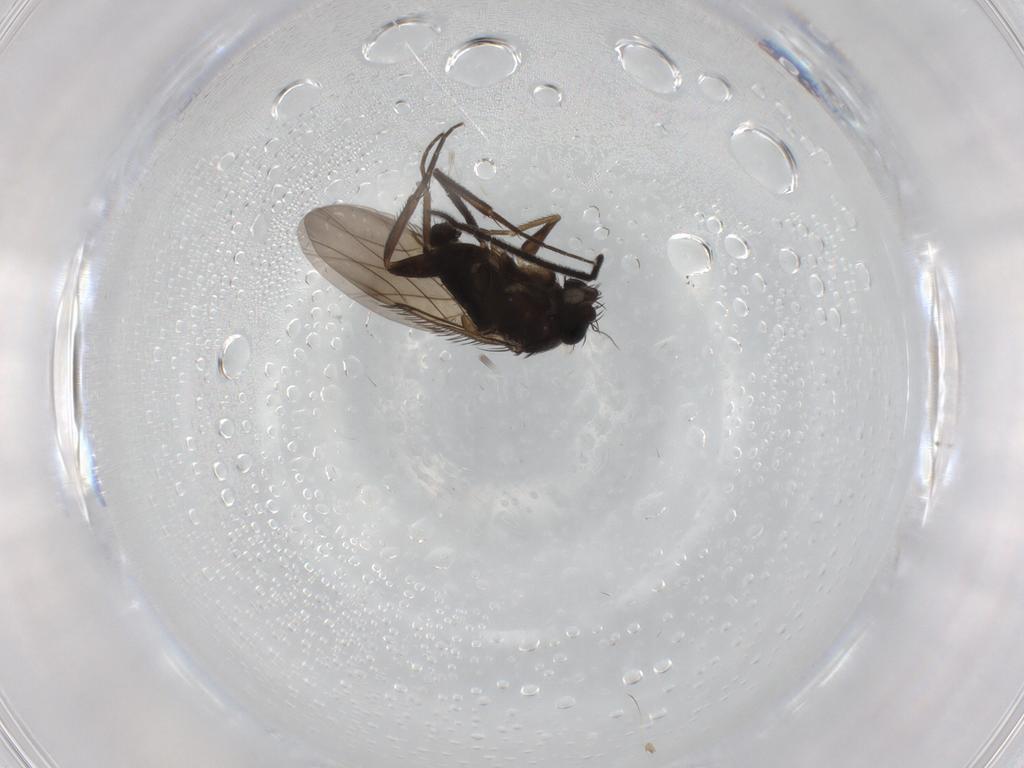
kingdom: Animalia
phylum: Arthropoda
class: Insecta
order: Diptera
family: Phoridae
